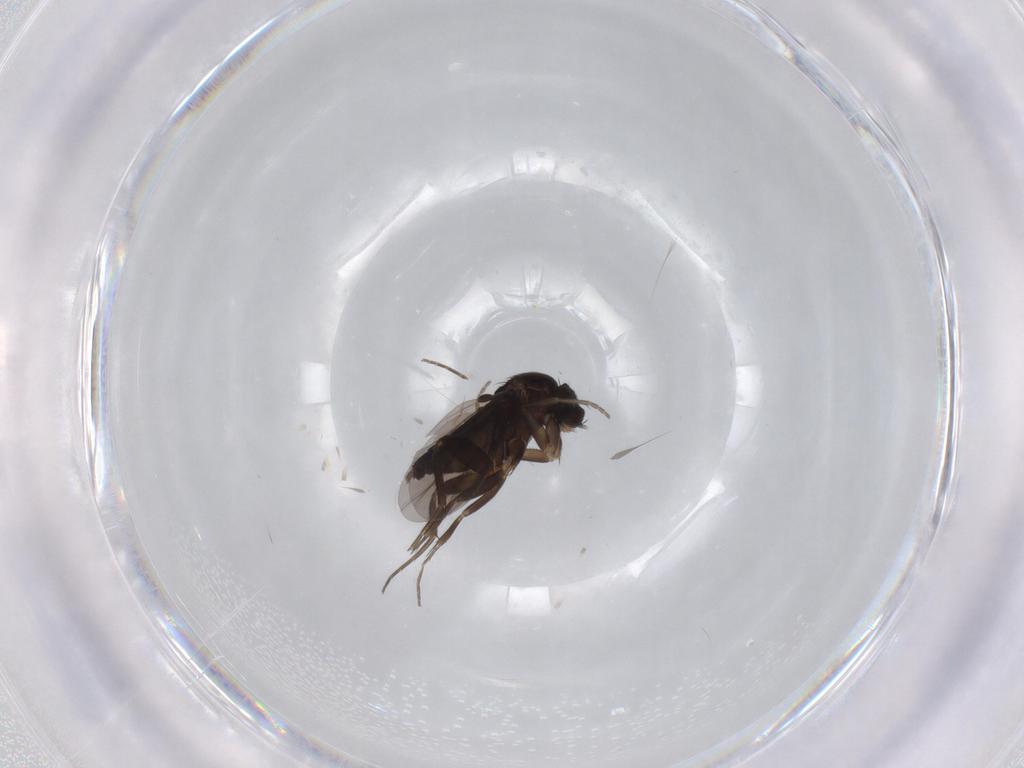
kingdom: Animalia
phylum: Arthropoda
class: Insecta
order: Diptera
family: Phoridae
